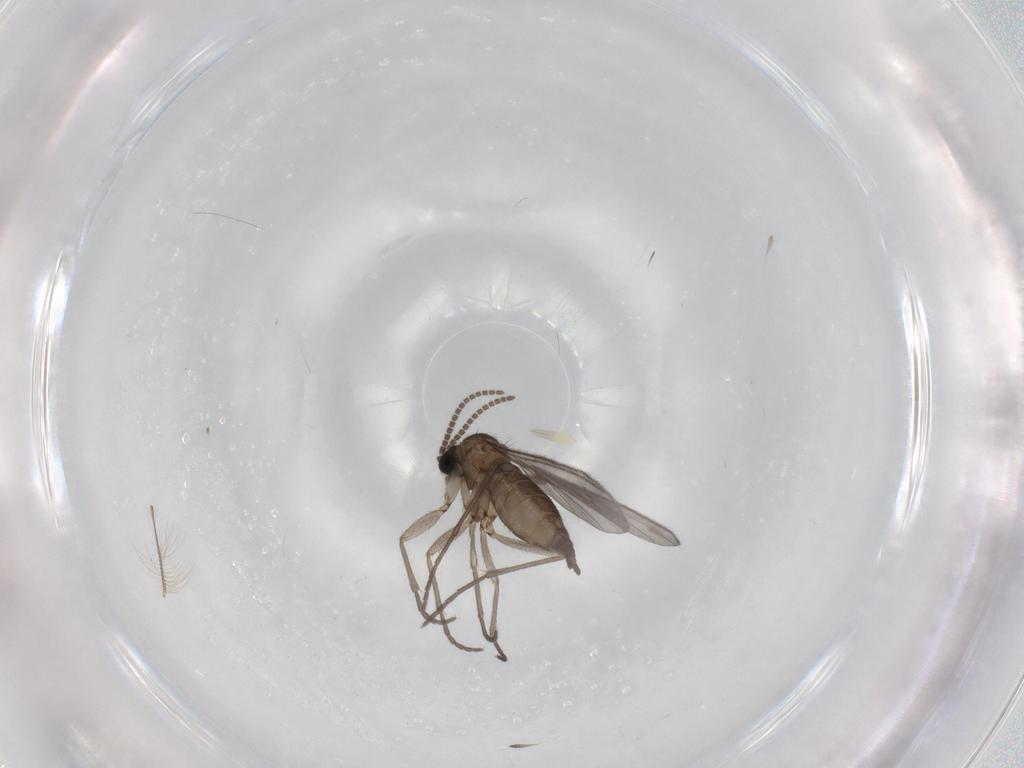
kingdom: Animalia
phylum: Arthropoda
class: Insecta
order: Diptera
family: Sciaridae
